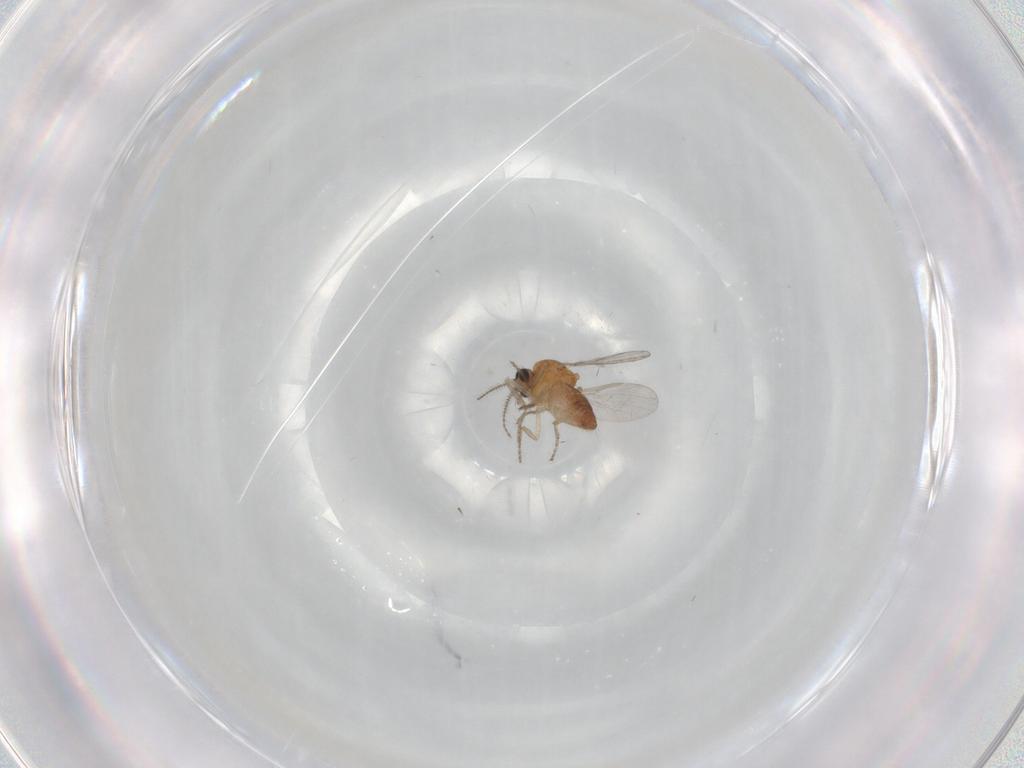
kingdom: Animalia
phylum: Arthropoda
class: Insecta
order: Diptera
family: Ceratopogonidae
